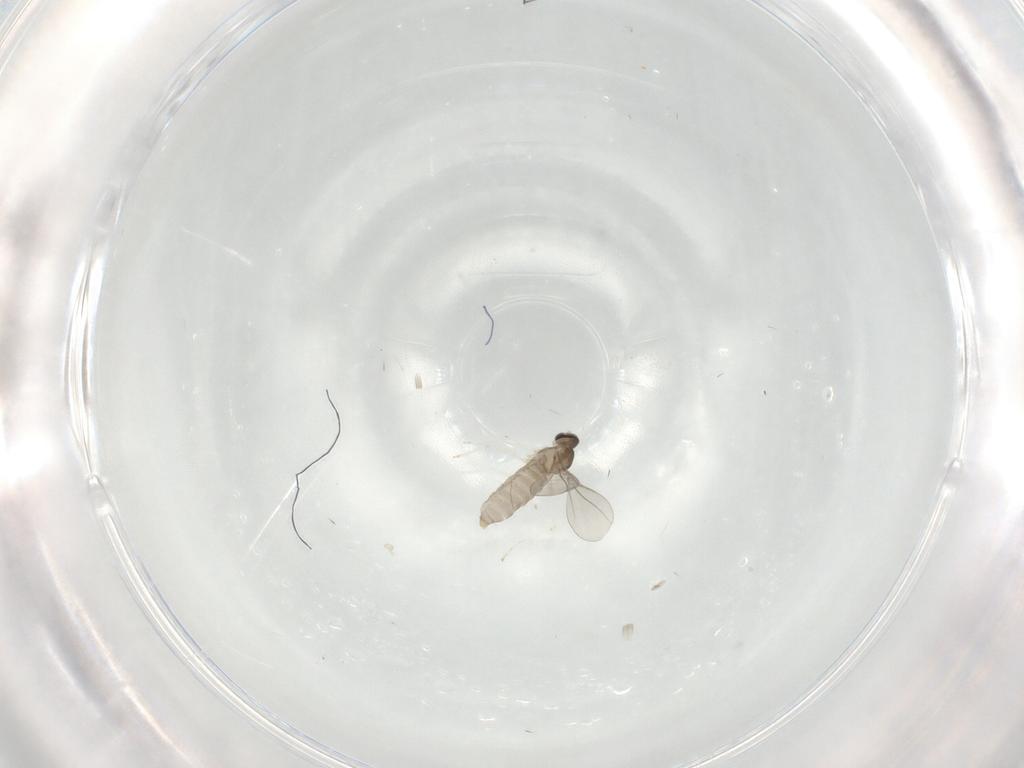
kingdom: Animalia
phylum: Arthropoda
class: Insecta
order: Diptera
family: Cecidomyiidae
